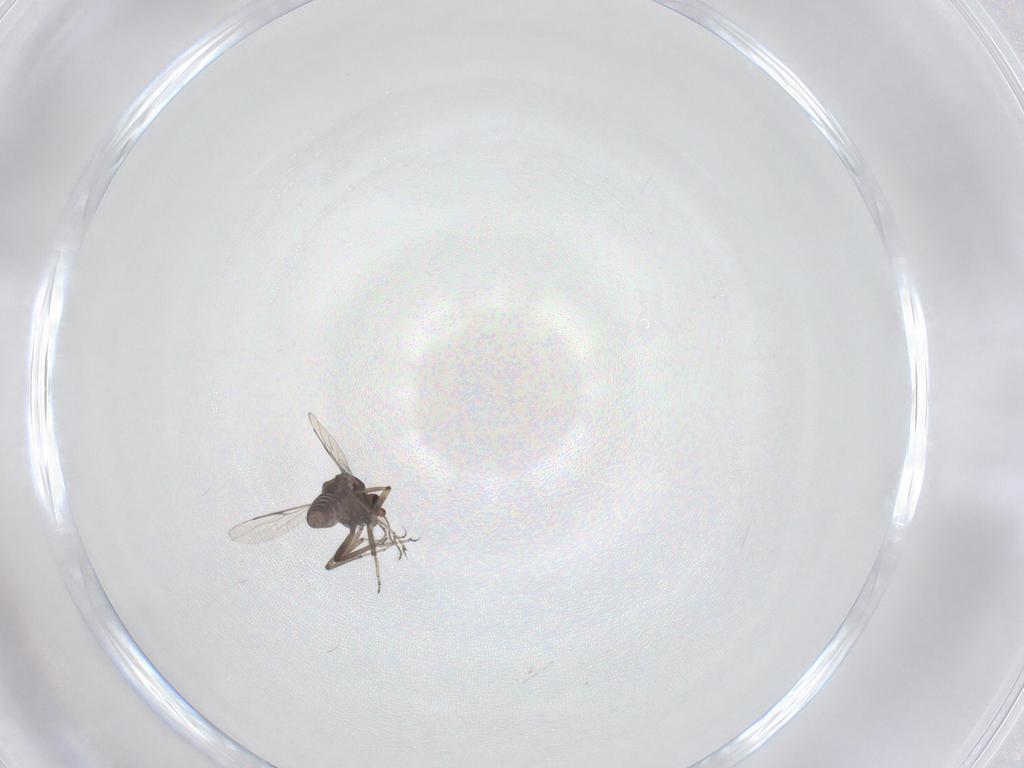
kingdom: Animalia
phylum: Arthropoda
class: Insecta
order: Diptera
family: Ceratopogonidae
